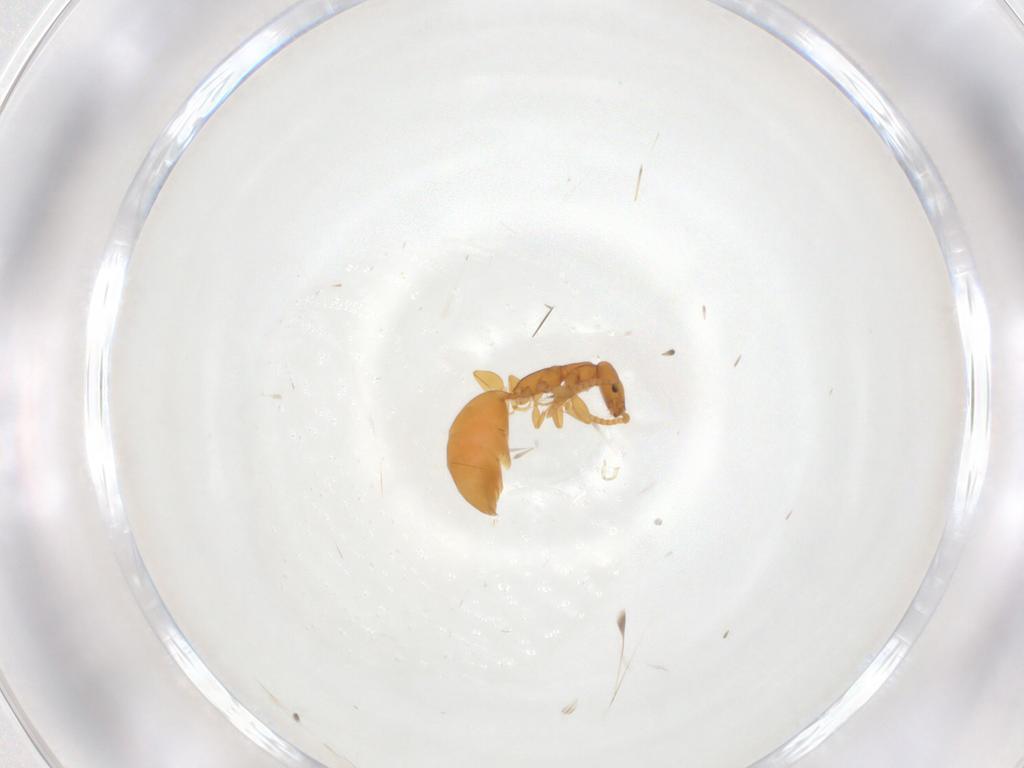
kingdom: Animalia
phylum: Arthropoda
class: Insecta
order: Hymenoptera
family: Bethylidae
